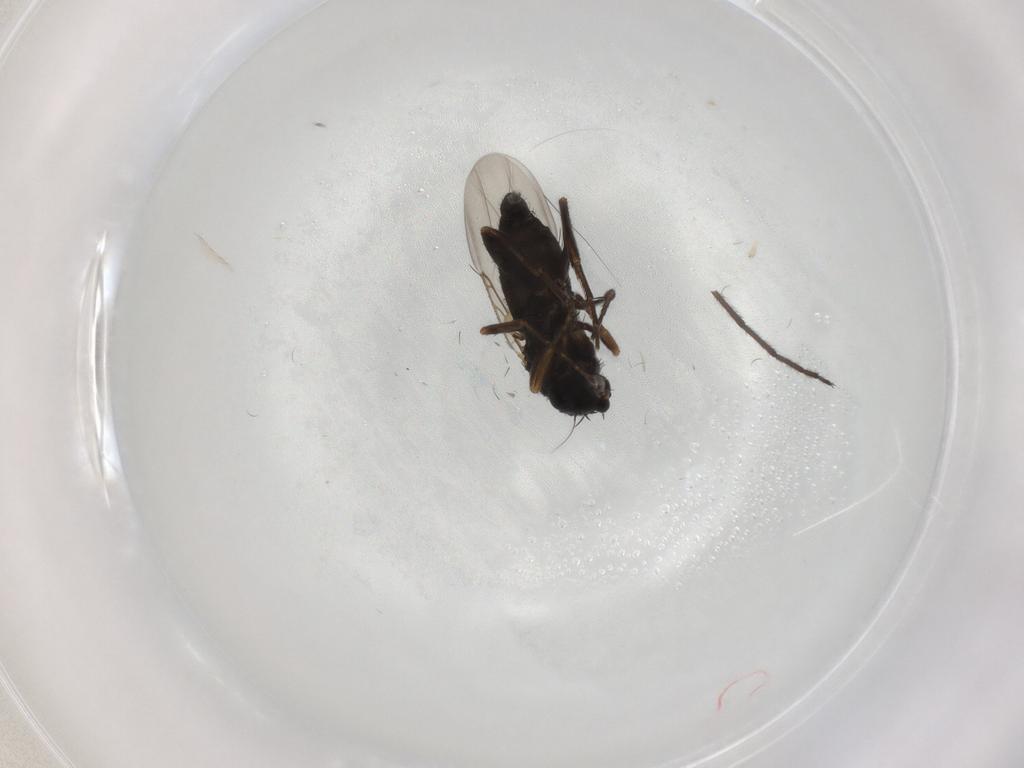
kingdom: Animalia
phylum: Arthropoda
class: Insecta
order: Diptera
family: Phoridae
